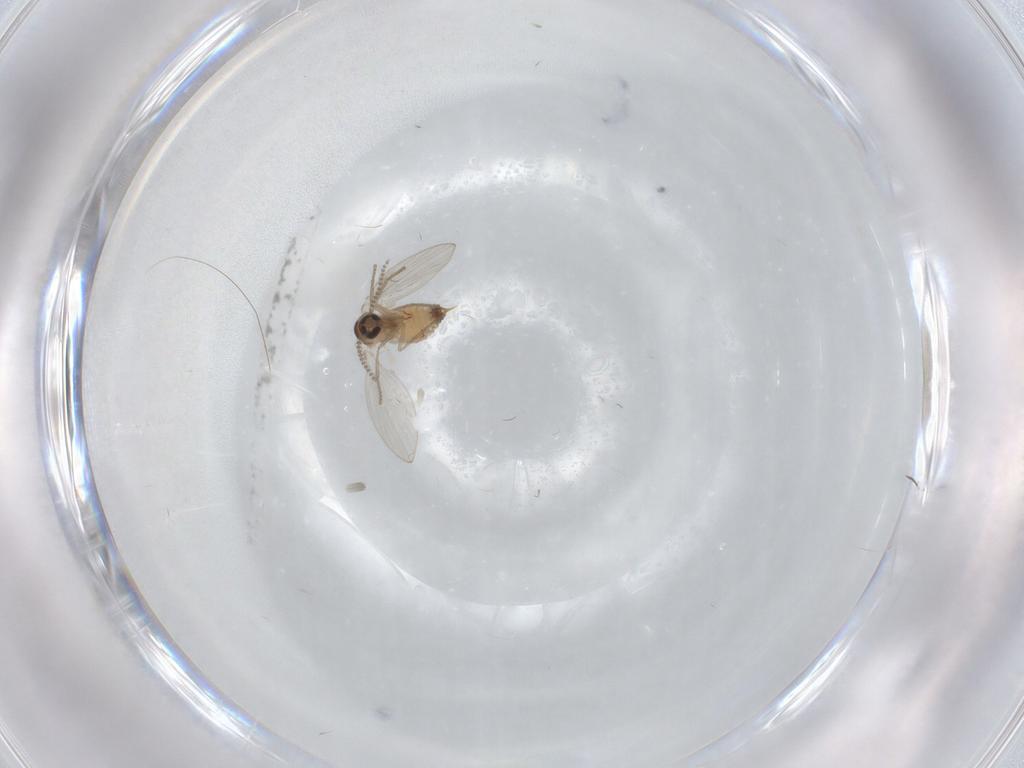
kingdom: Animalia
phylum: Arthropoda
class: Insecta
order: Diptera
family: Psychodidae
